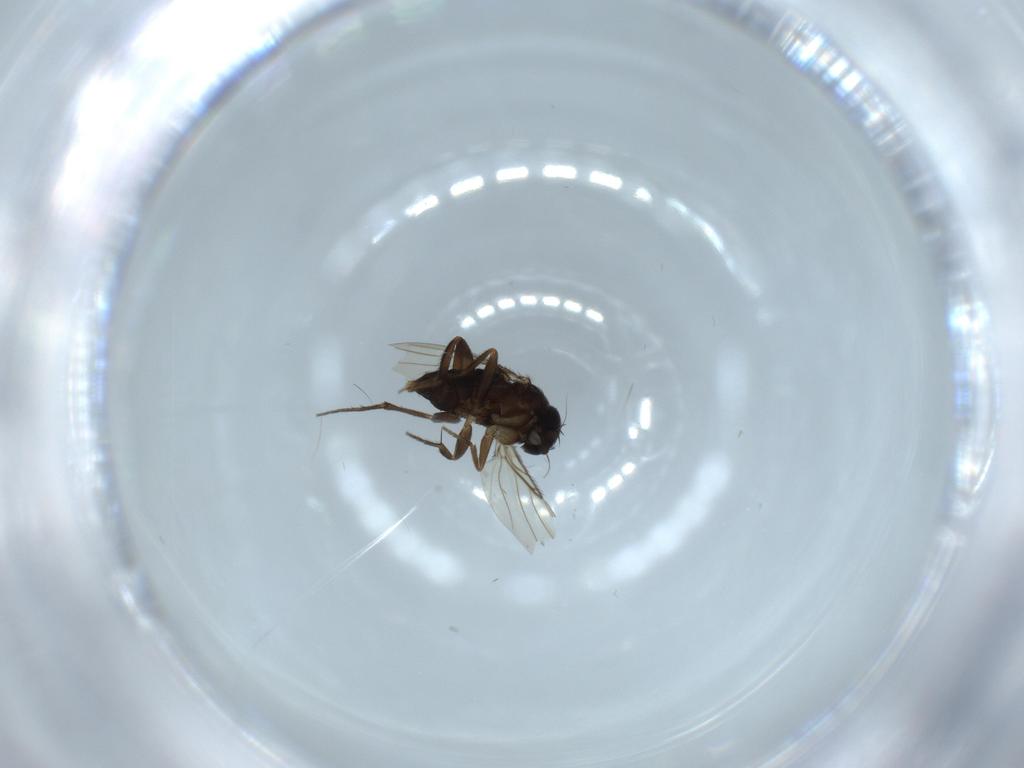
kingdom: Animalia
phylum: Arthropoda
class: Insecta
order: Diptera
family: Phoridae
